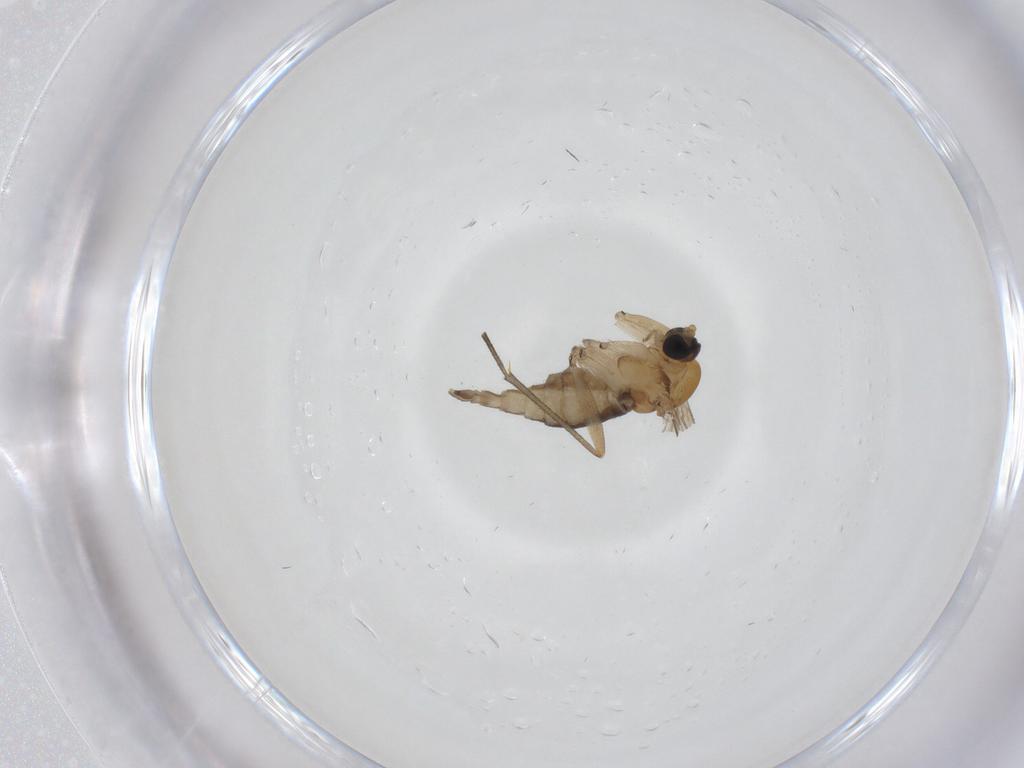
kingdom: Animalia
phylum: Arthropoda
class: Insecta
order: Diptera
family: Sciaridae
